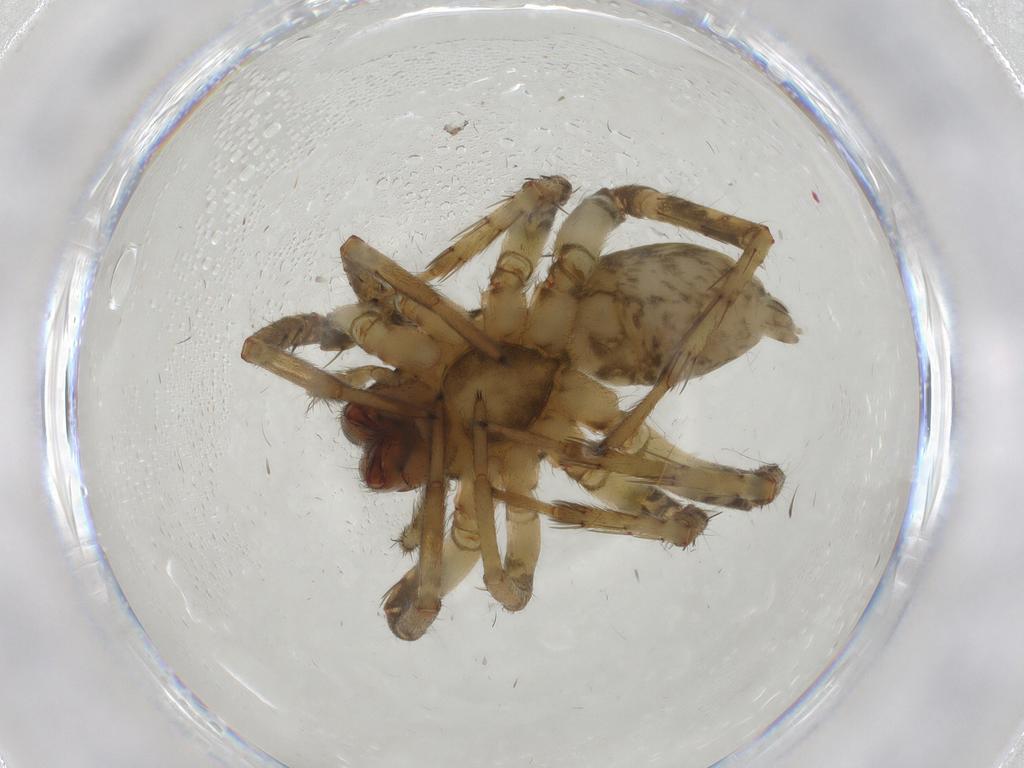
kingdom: Animalia
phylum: Arthropoda
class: Arachnida
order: Araneae
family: Anyphaenidae
